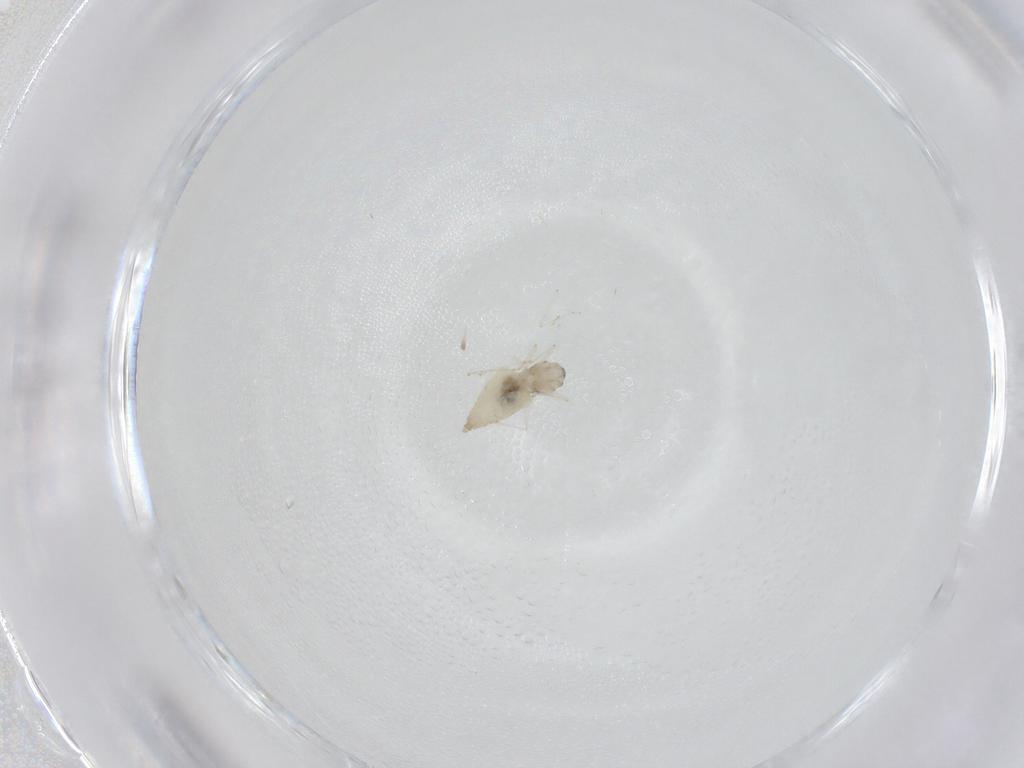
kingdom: Animalia
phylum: Arthropoda
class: Insecta
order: Diptera
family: Cecidomyiidae
